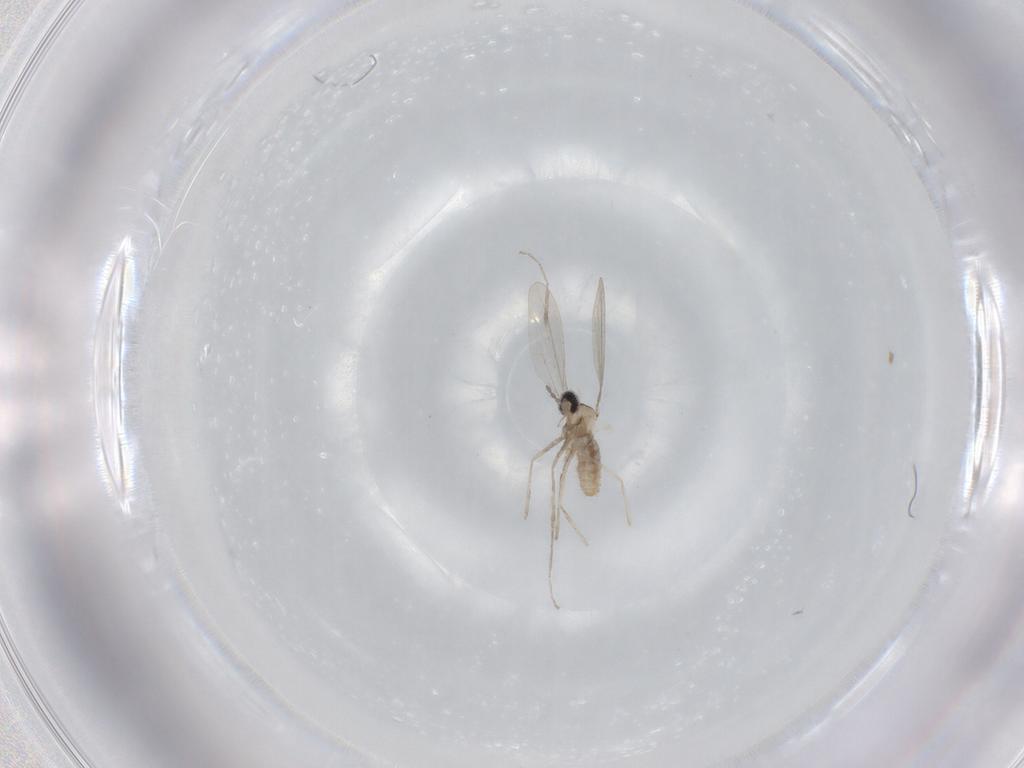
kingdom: Animalia
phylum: Arthropoda
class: Insecta
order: Diptera
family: Cecidomyiidae
